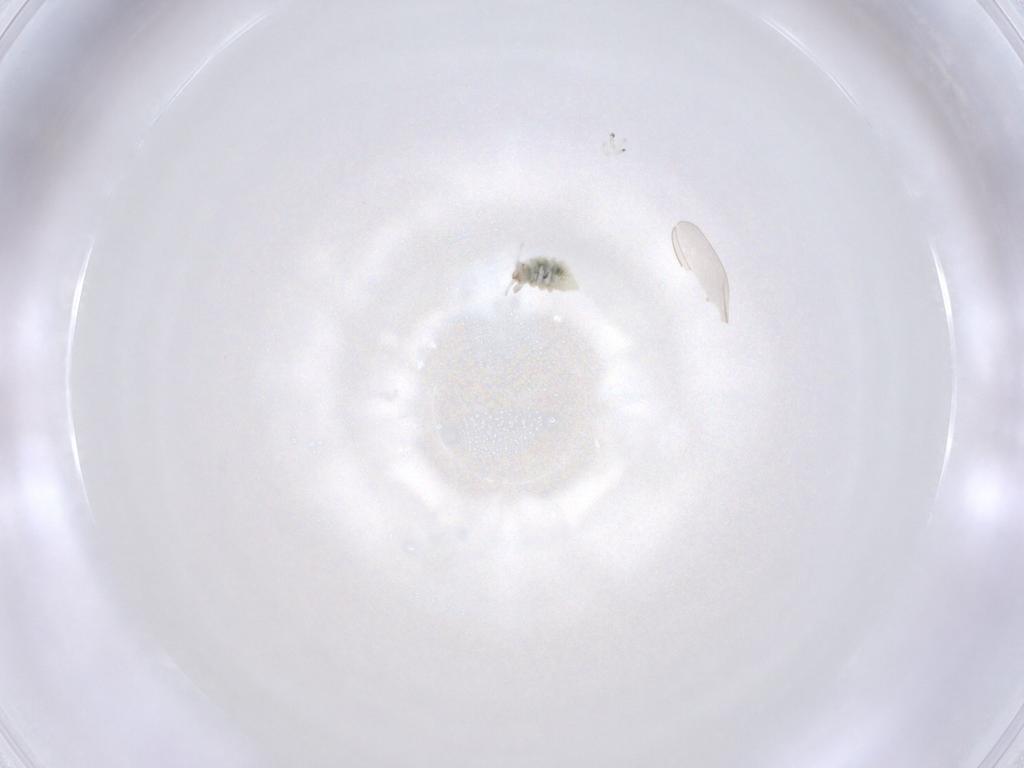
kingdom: Animalia
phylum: Arthropoda
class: Insecta
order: Neuroptera
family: Coniopterygidae
